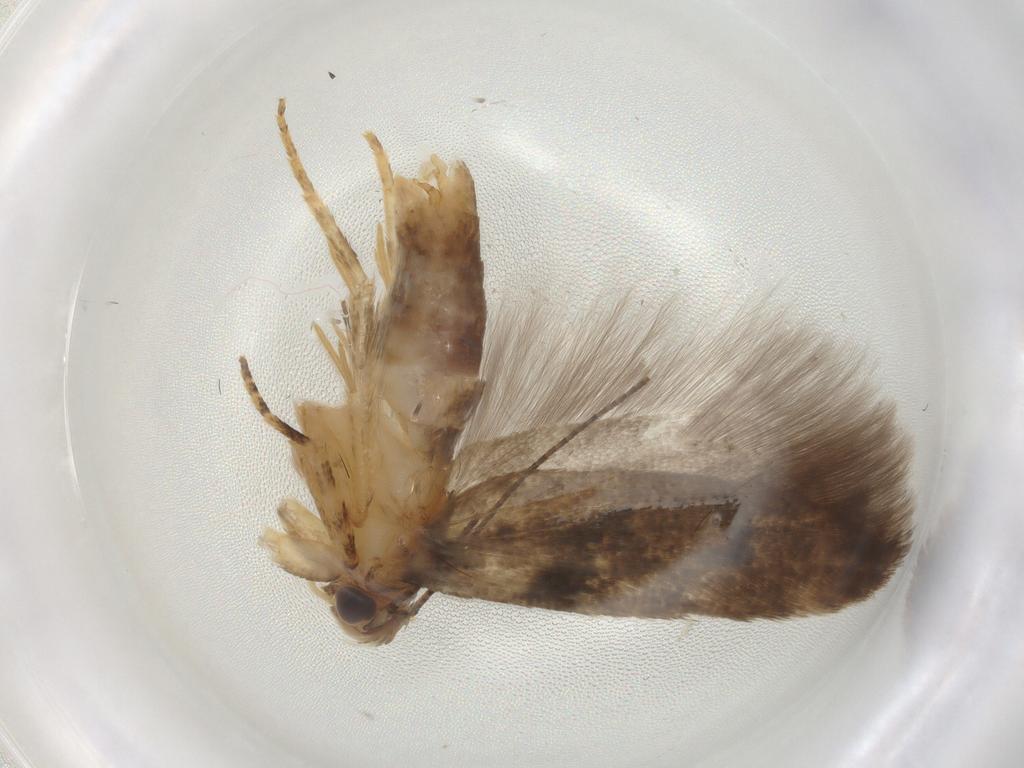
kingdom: Animalia
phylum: Arthropoda
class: Insecta
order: Lepidoptera
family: Gelechiidae
